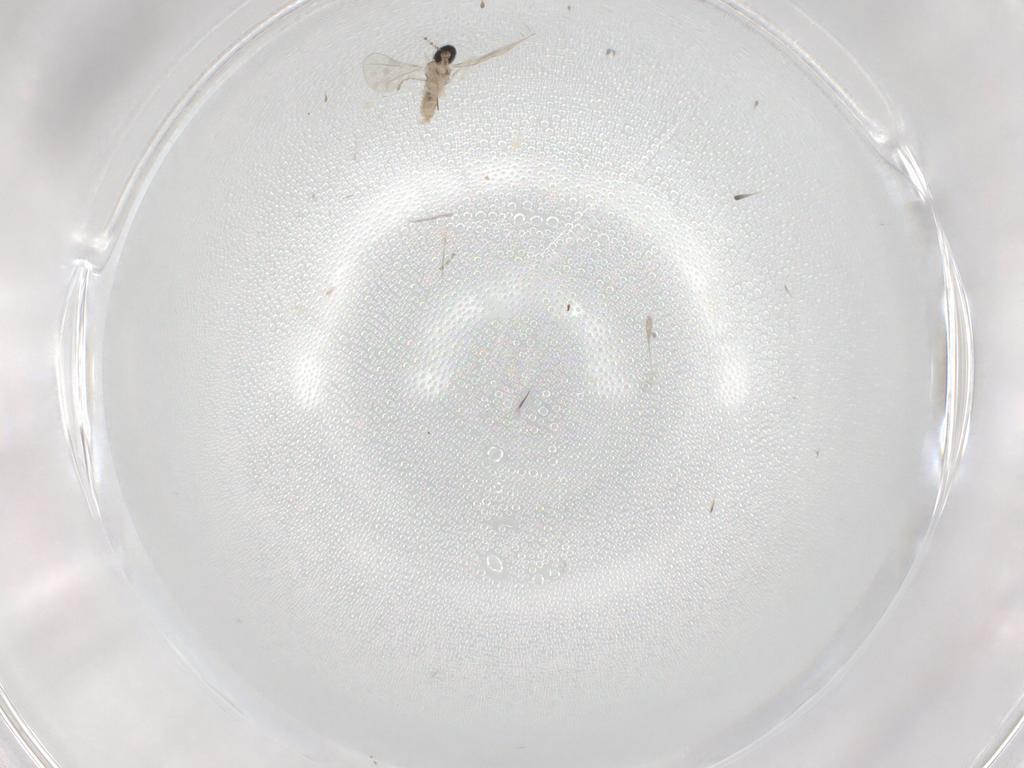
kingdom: Animalia
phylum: Arthropoda
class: Insecta
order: Diptera
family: Cecidomyiidae
